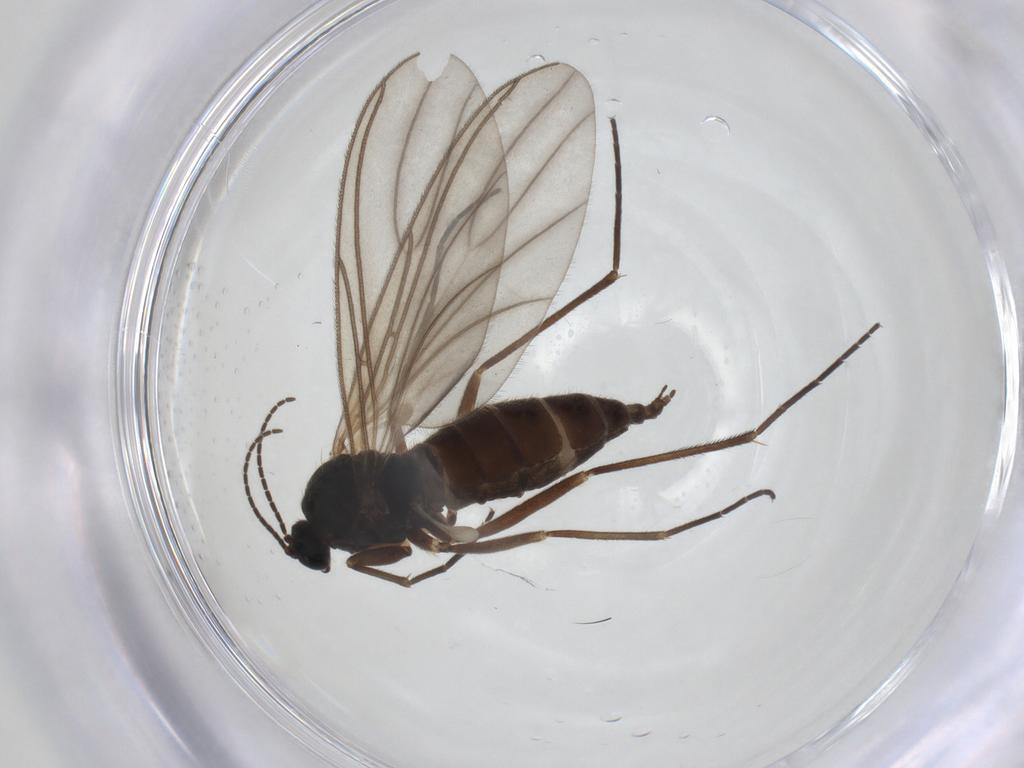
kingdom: Animalia
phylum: Arthropoda
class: Insecta
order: Diptera
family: Sciaridae
